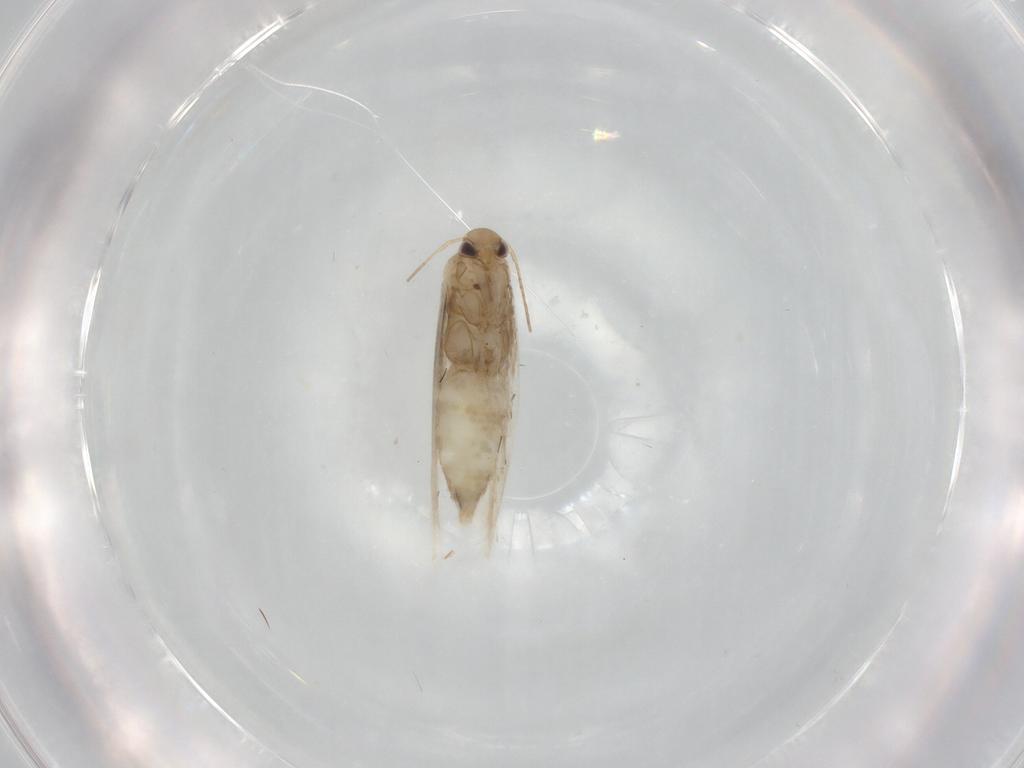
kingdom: Animalia
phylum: Arthropoda
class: Insecta
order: Lepidoptera
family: Gracillariidae
